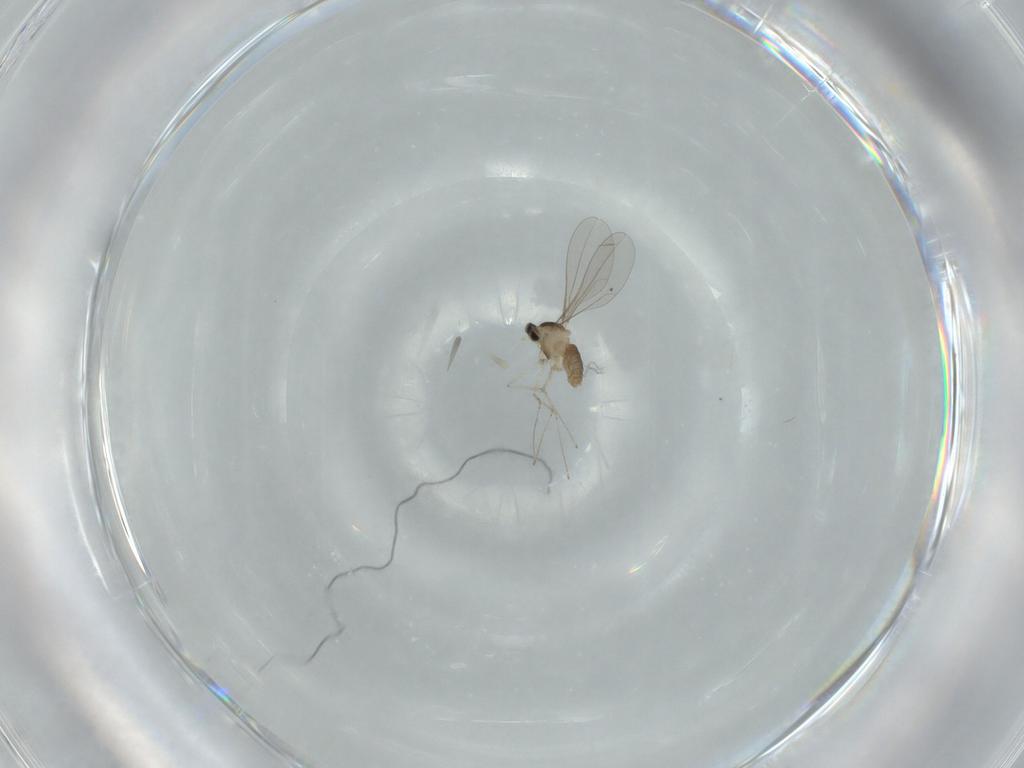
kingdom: Animalia
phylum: Arthropoda
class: Insecta
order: Diptera
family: Cecidomyiidae
